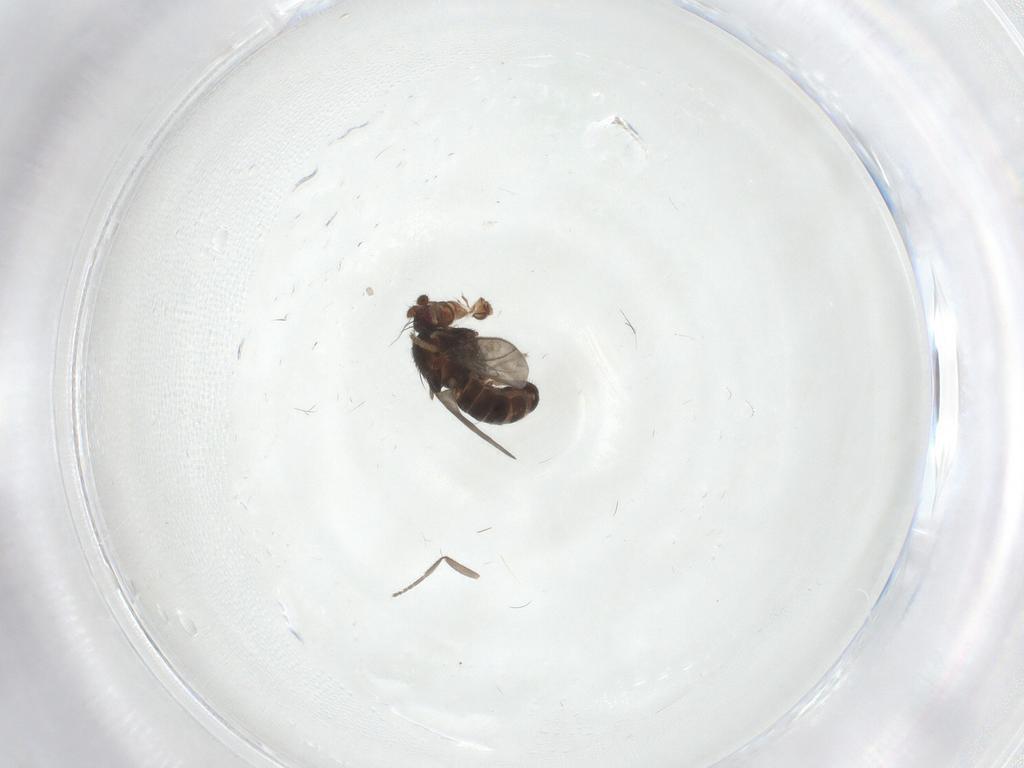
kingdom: Animalia
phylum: Arthropoda
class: Insecta
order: Diptera
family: Phoridae
